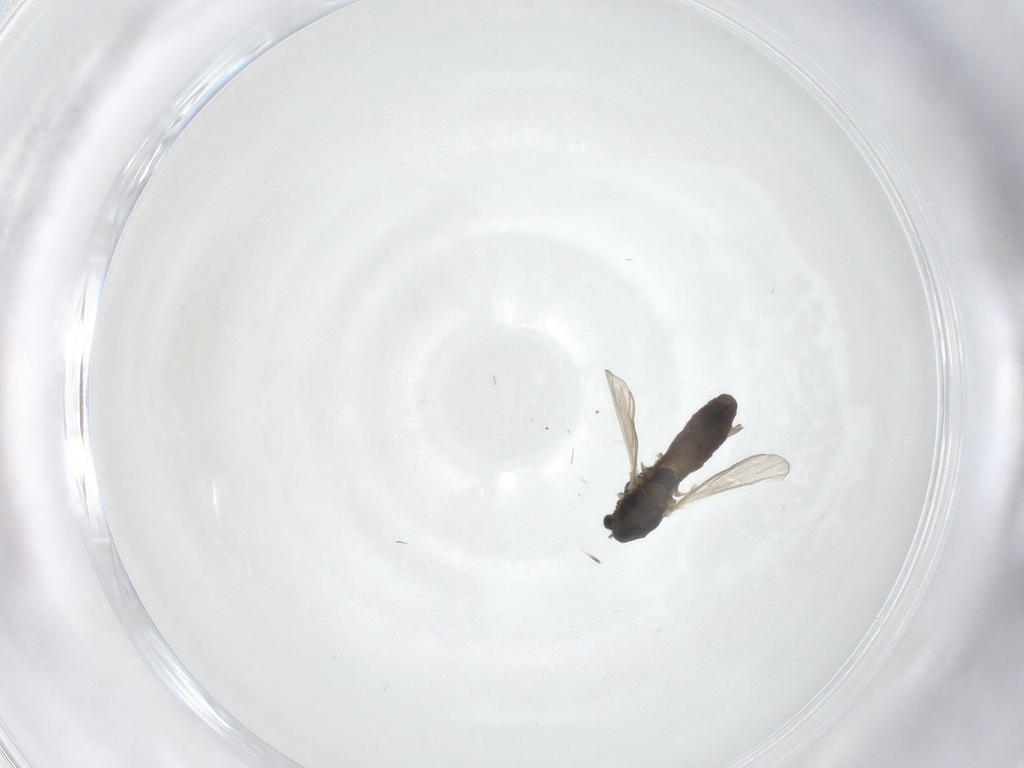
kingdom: Animalia
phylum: Arthropoda
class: Insecta
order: Diptera
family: Chironomidae
